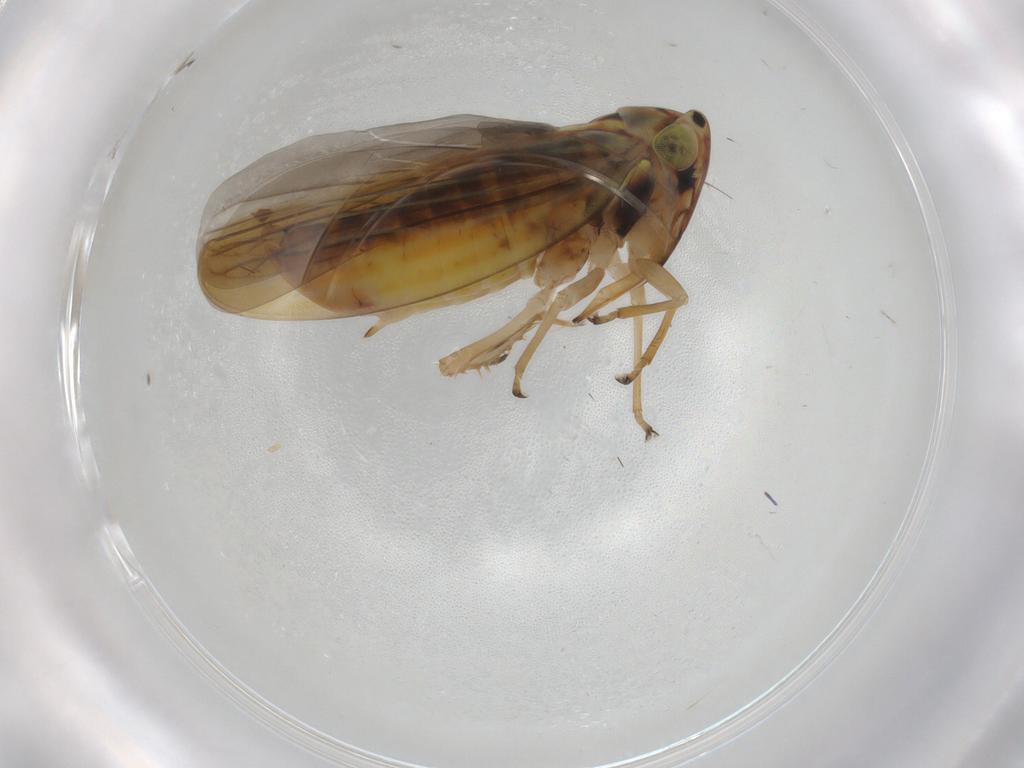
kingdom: Animalia
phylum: Arthropoda
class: Insecta
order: Hemiptera
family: Cicadellidae
